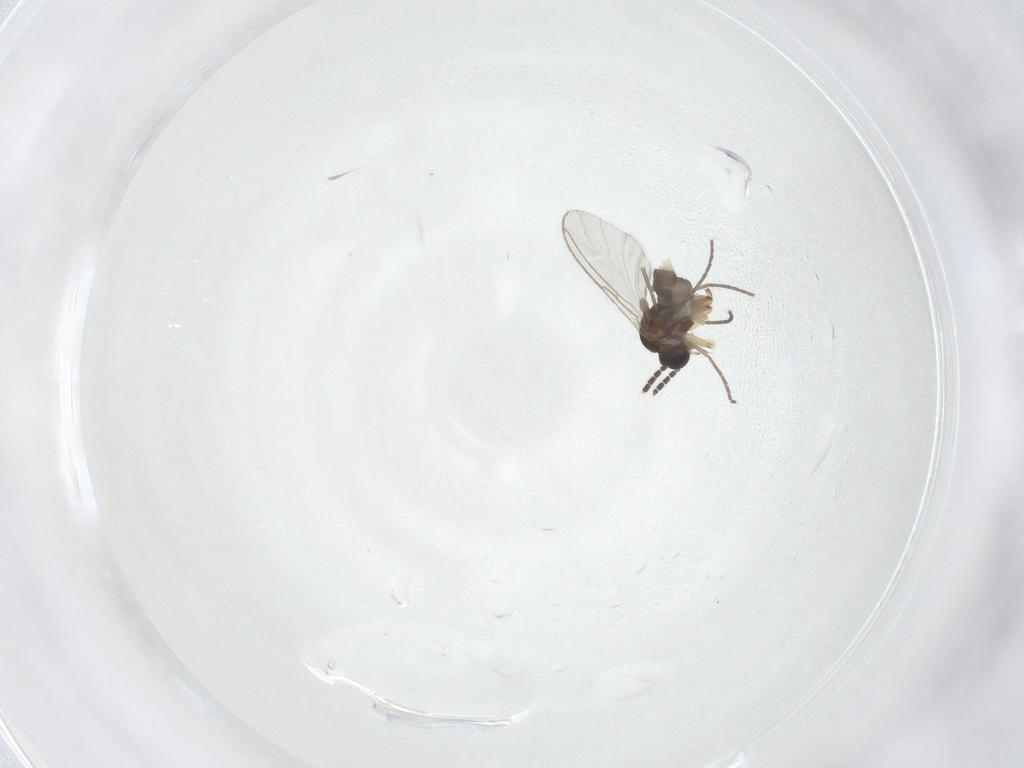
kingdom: Animalia
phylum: Arthropoda
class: Insecta
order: Diptera
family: Sciaridae
